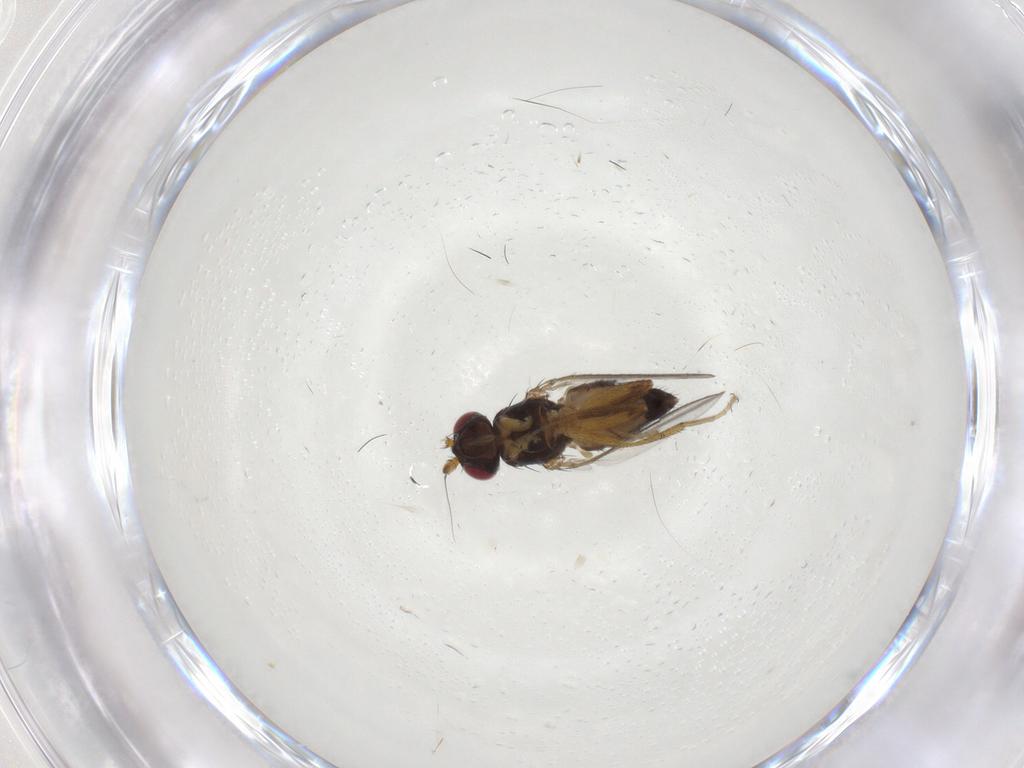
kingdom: Animalia
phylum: Arthropoda
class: Insecta
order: Diptera
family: Cypselosomatidae
